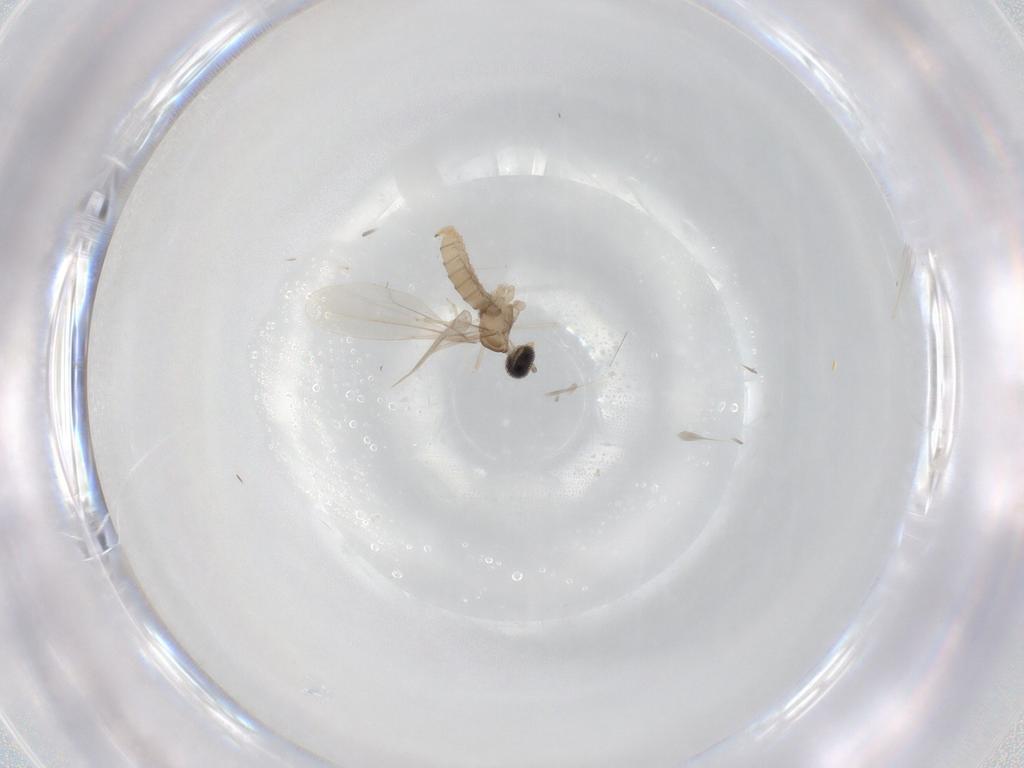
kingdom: Animalia
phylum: Arthropoda
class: Insecta
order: Diptera
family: Cecidomyiidae
